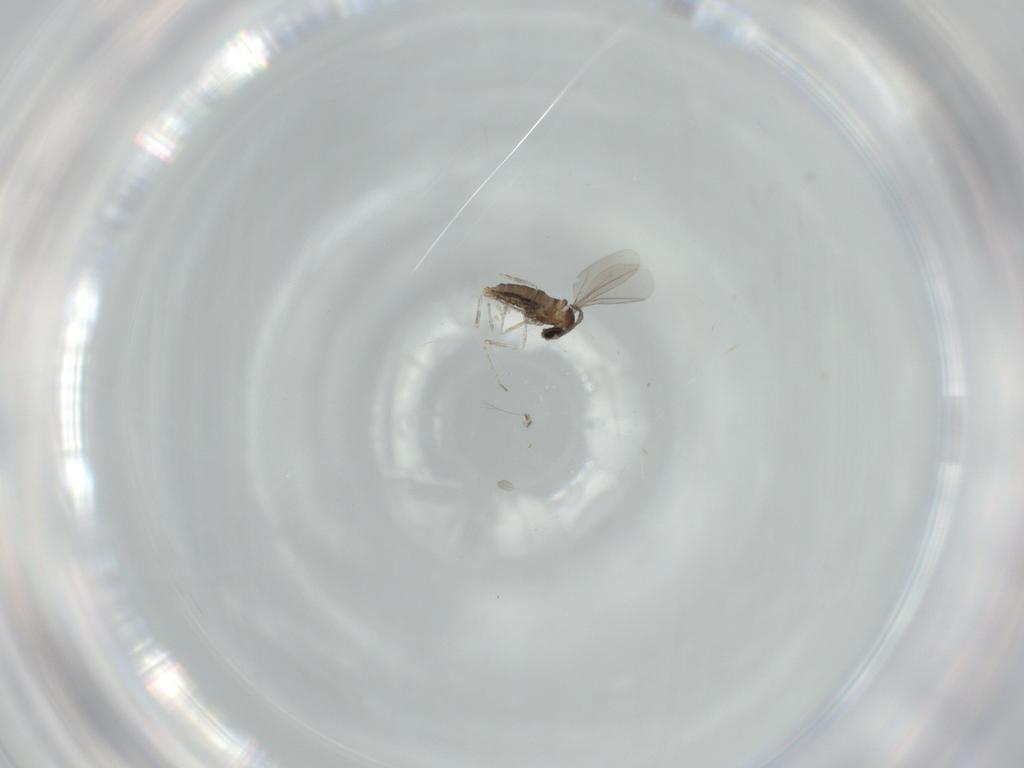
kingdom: Animalia
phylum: Arthropoda
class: Insecta
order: Diptera
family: Cecidomyiidae
